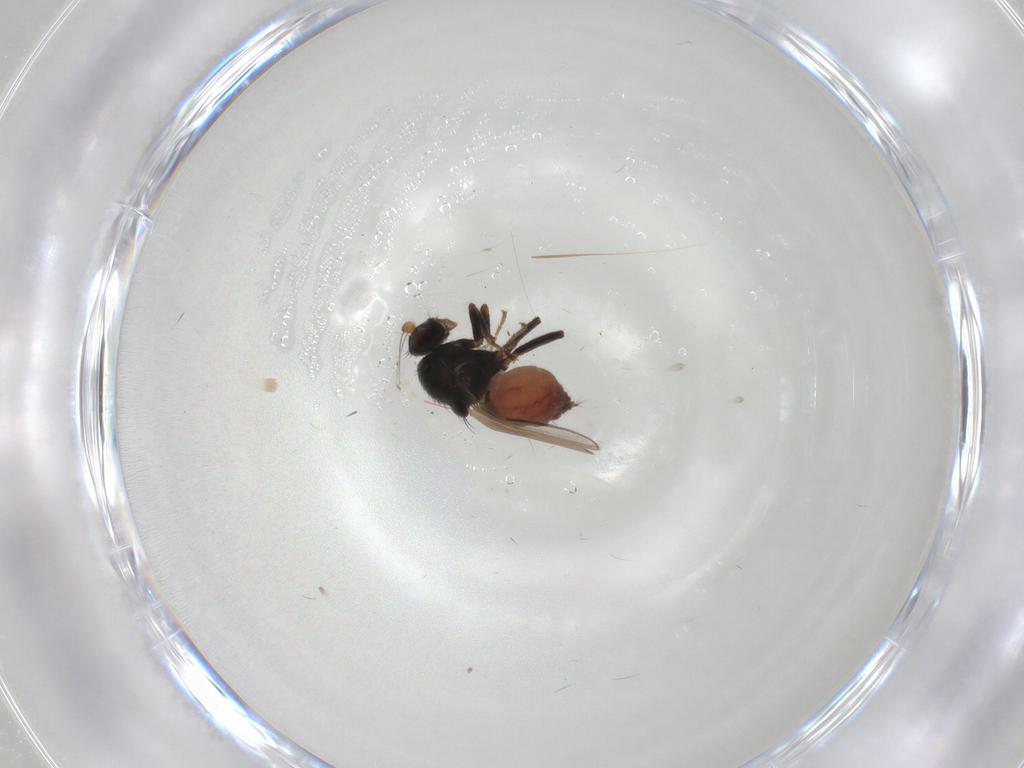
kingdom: Animalia
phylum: Arthropoda
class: Insecta
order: Diptera
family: Sphaeroceridae
